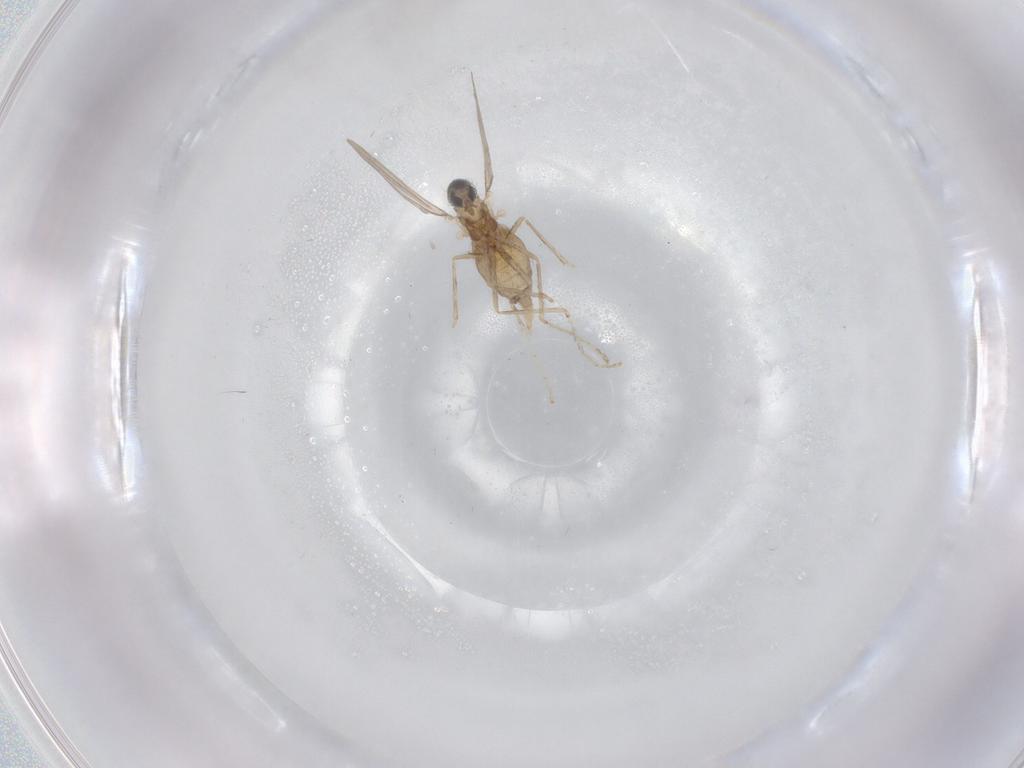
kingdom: Animalia
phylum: Arthropoda
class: Insecta
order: Diptera
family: Cecidomyiidae
